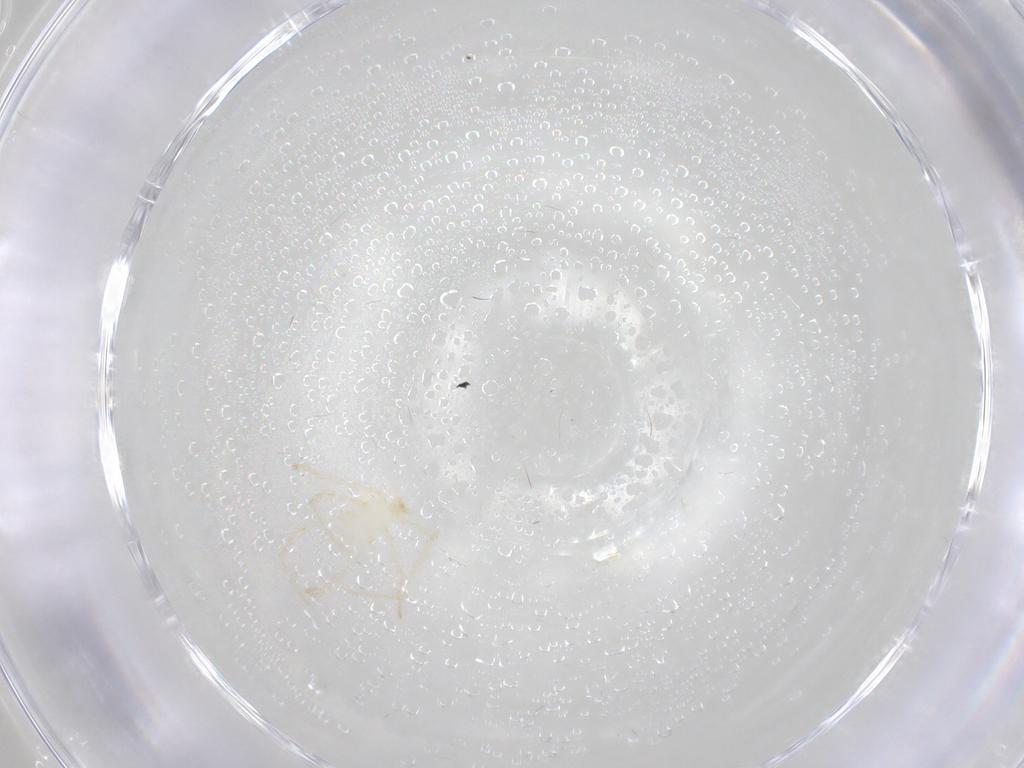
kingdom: Animalia
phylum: Arthropoda
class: Arachnida
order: Trombidiformes
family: Erythraeidae
